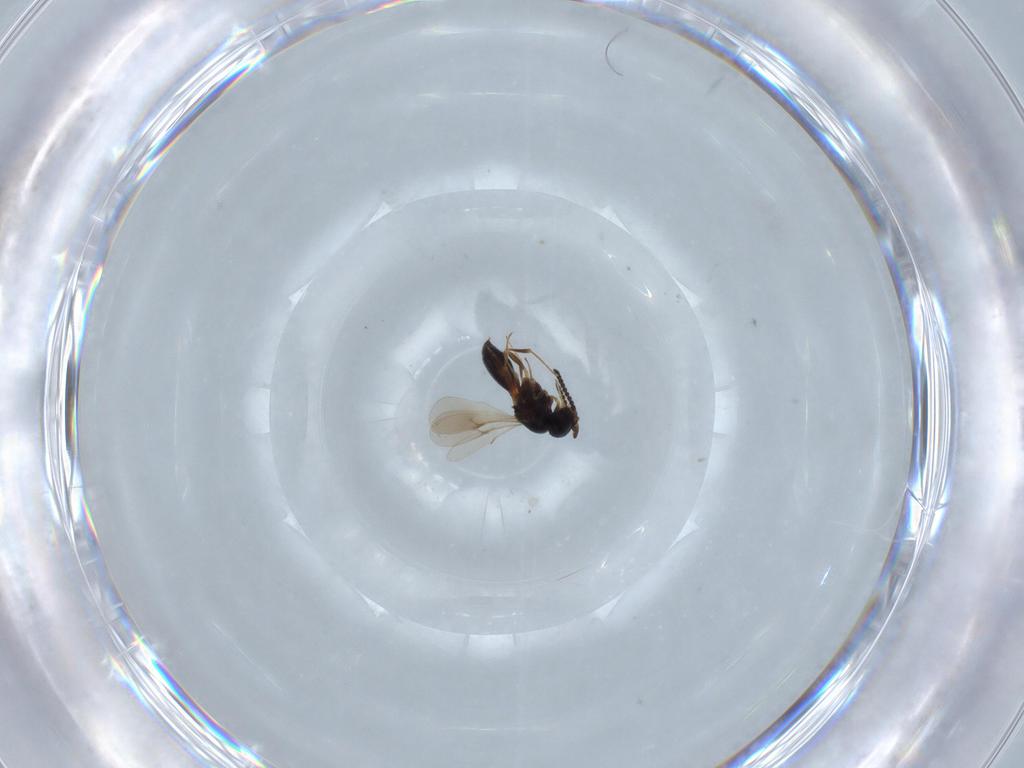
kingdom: Animalia
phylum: Arthropoda
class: Insecta
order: Hymenoptera
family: Scelionidae
